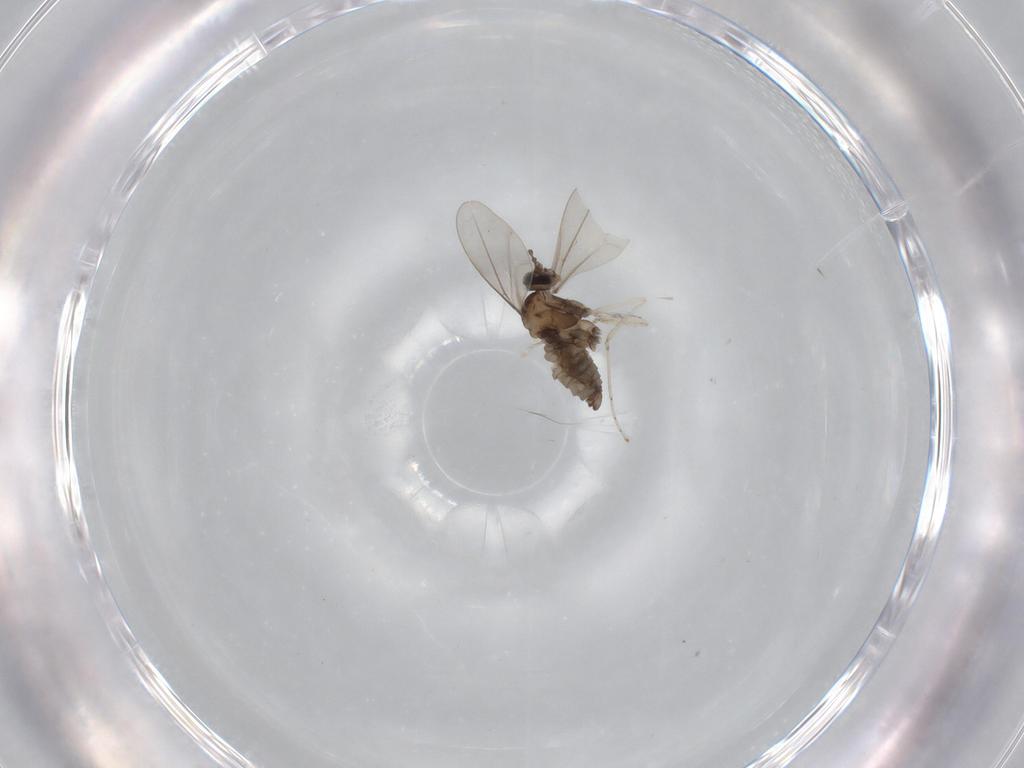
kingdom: Animalia
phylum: Arthropoda
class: Insecta
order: Diptera
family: Cecidomyiidae
